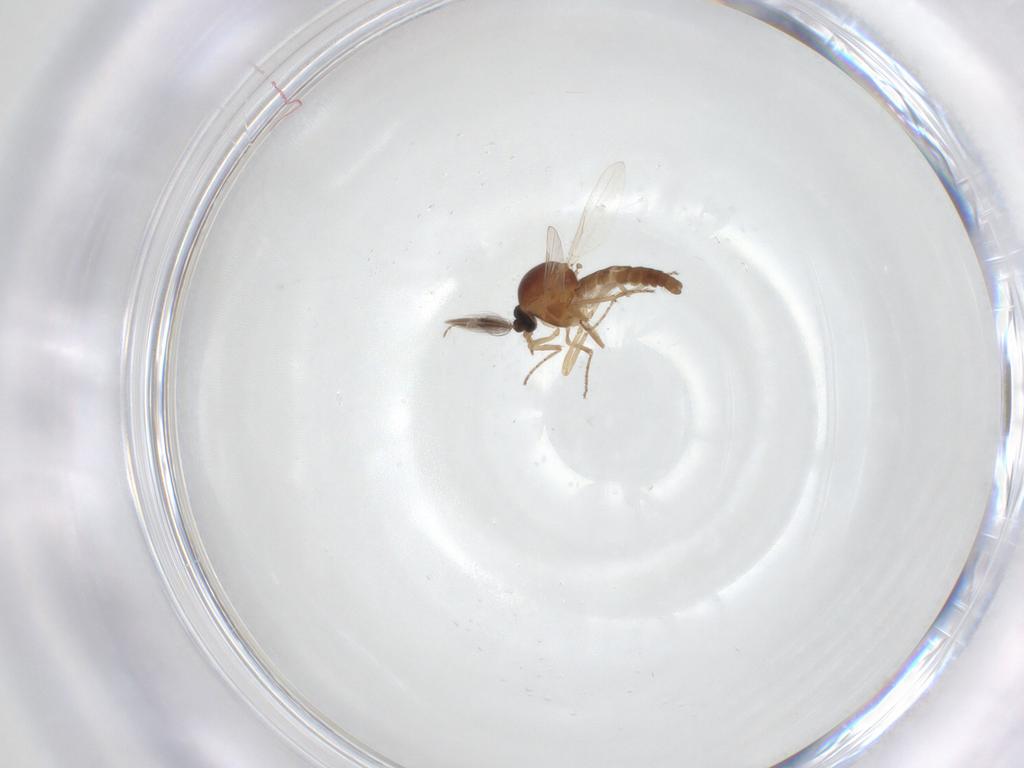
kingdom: Animalia
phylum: Arthropoda
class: Insecta
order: Diptera
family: Ceratopogonidae
